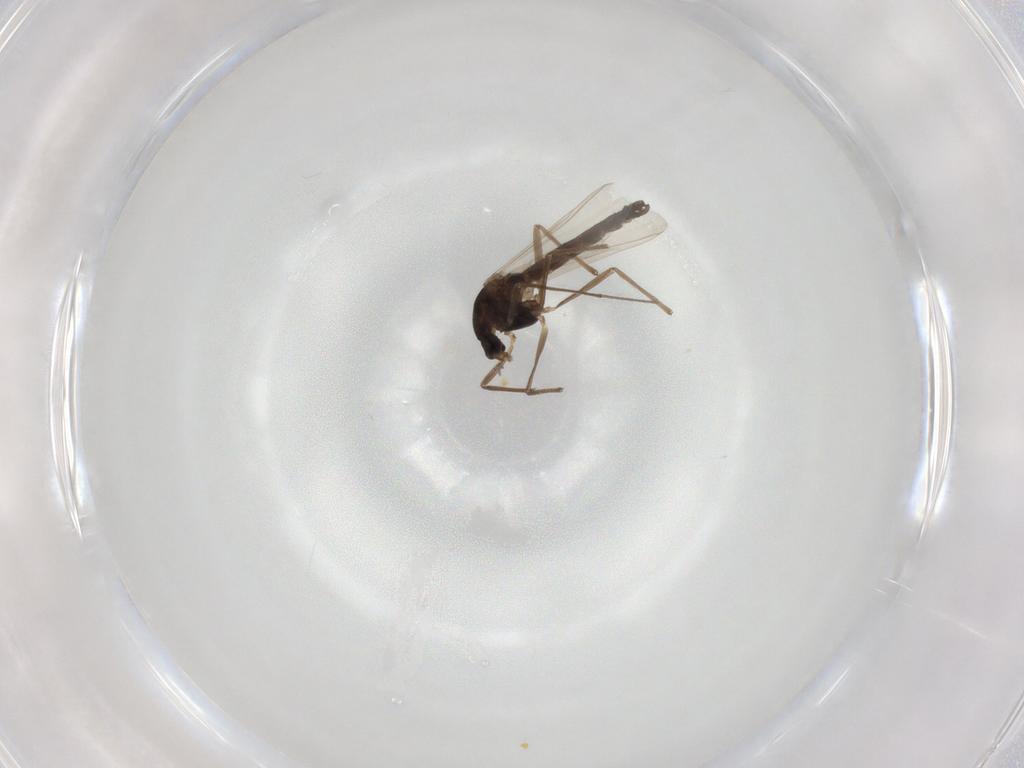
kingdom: Animalia
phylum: Arthropoda
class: Insecta
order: Diptera
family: Chironomidae
